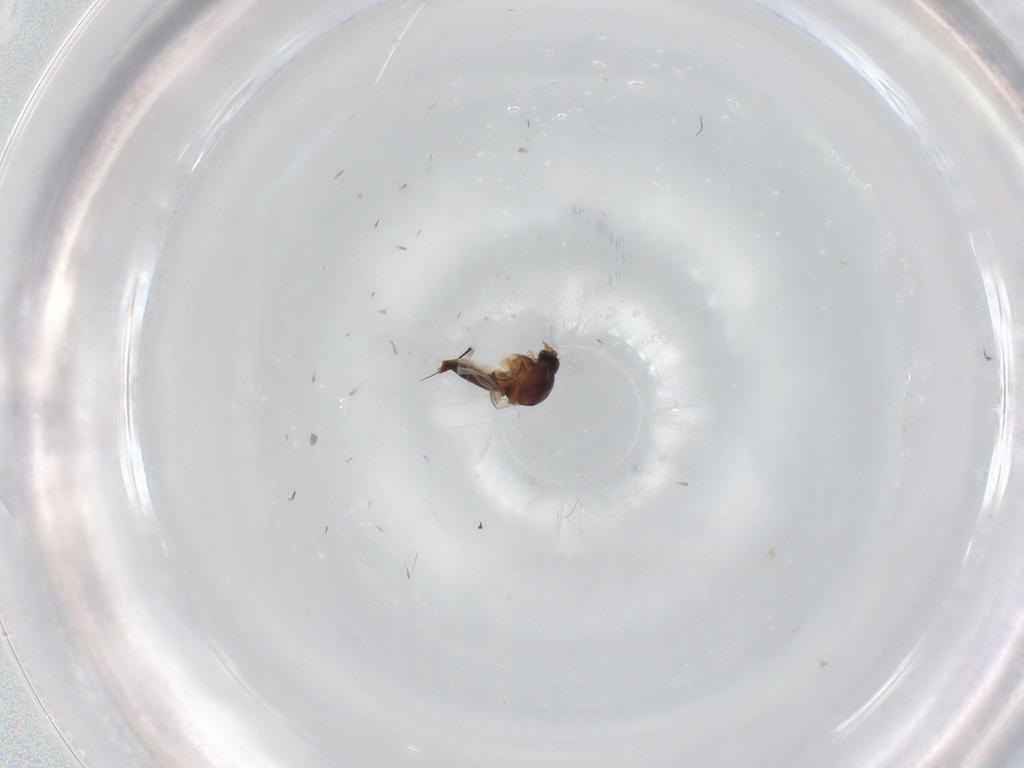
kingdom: Animalia
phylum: Arthropoda
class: Insecta
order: Diptera
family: Ceratopogonidae
